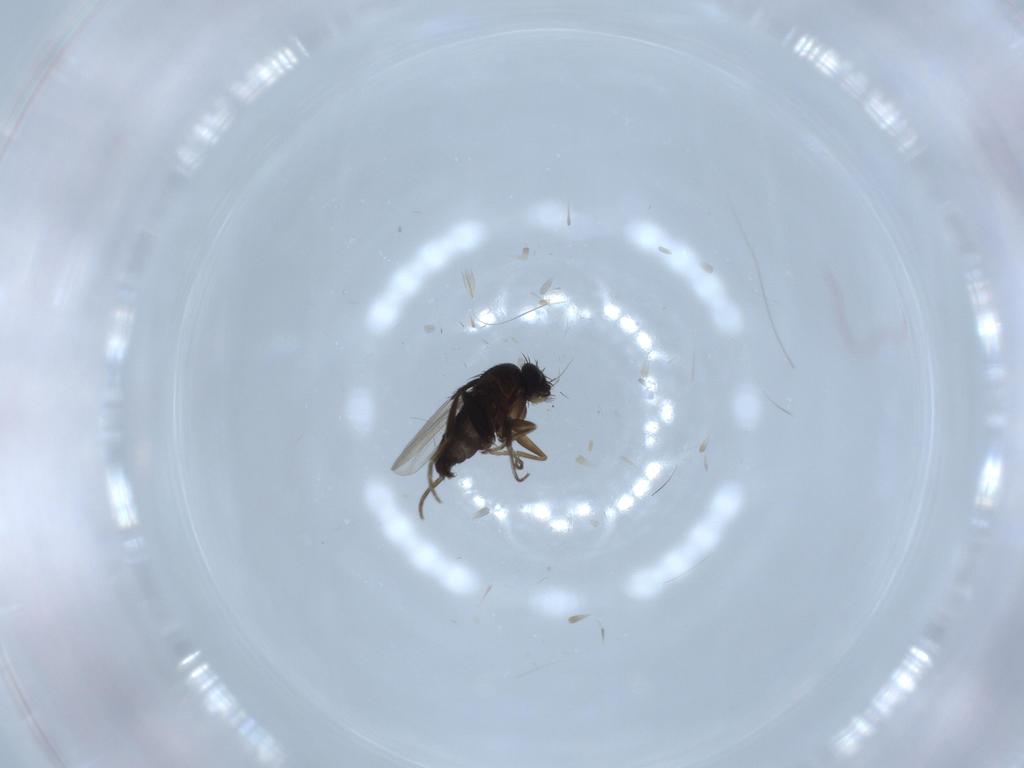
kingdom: Animalia
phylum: Arthropoda
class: Insecta
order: Diptera
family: Phoridae
